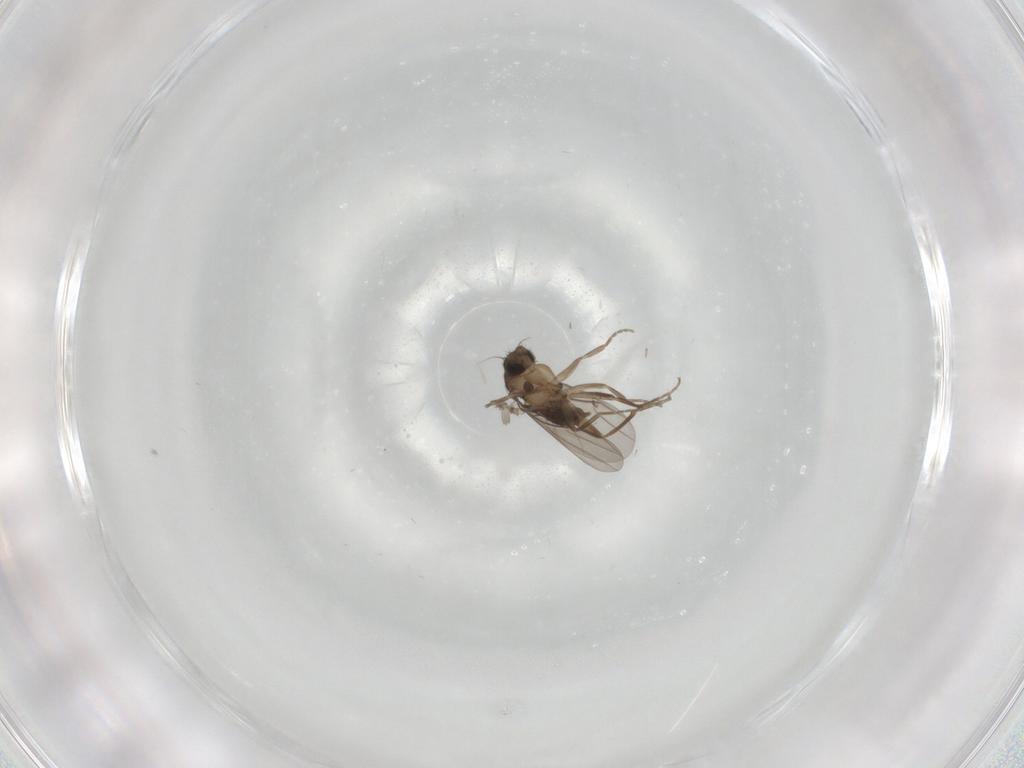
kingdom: Animalia
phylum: Arthropoda
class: Insecta
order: Diptera
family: Phoridae
